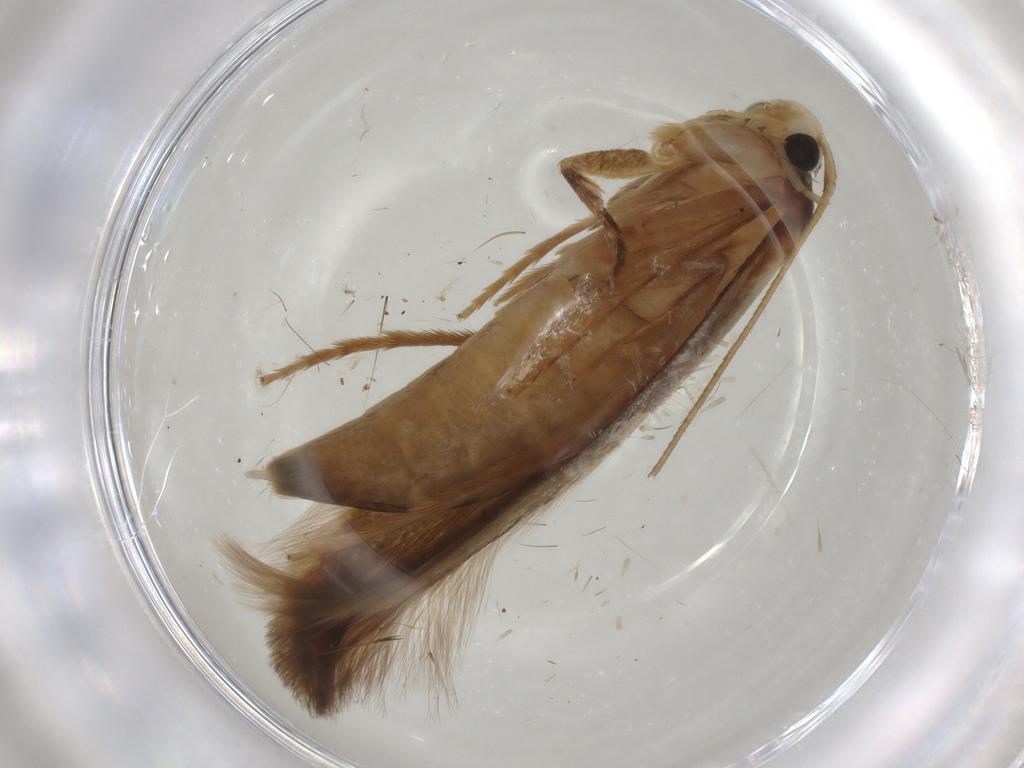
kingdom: Animalia
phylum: Arthropoda
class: Insecta
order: Lepidoptera
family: Tineidae
